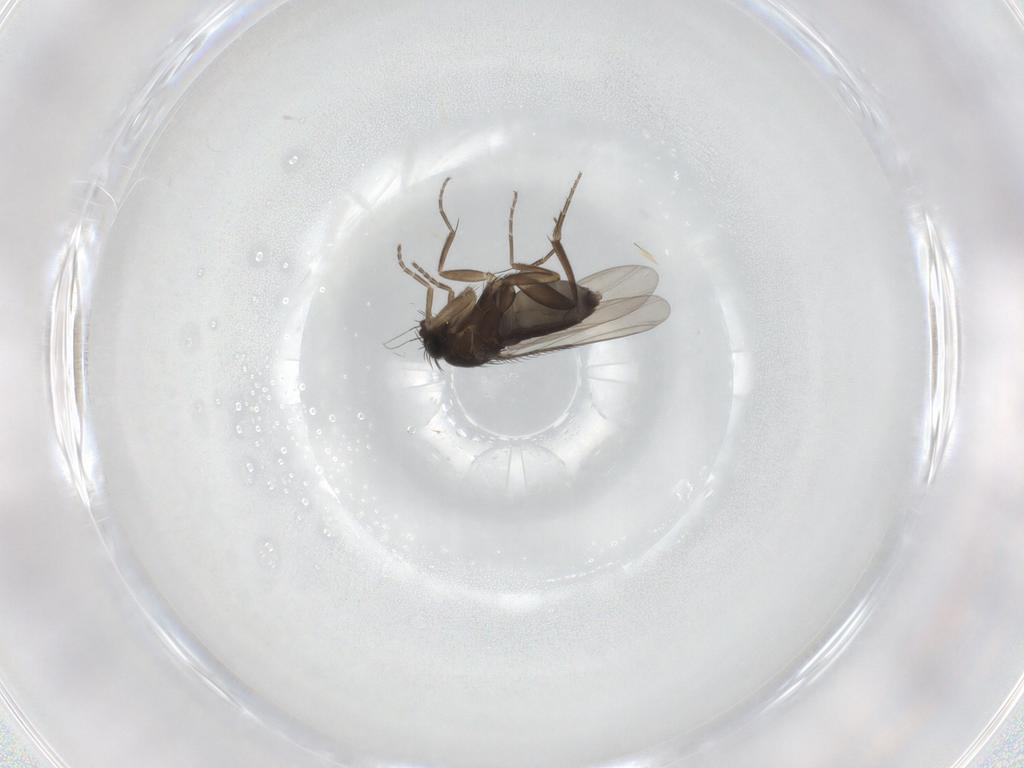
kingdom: Animalia
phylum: Arthropoda
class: Insecta
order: Diptera
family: Phoridae
